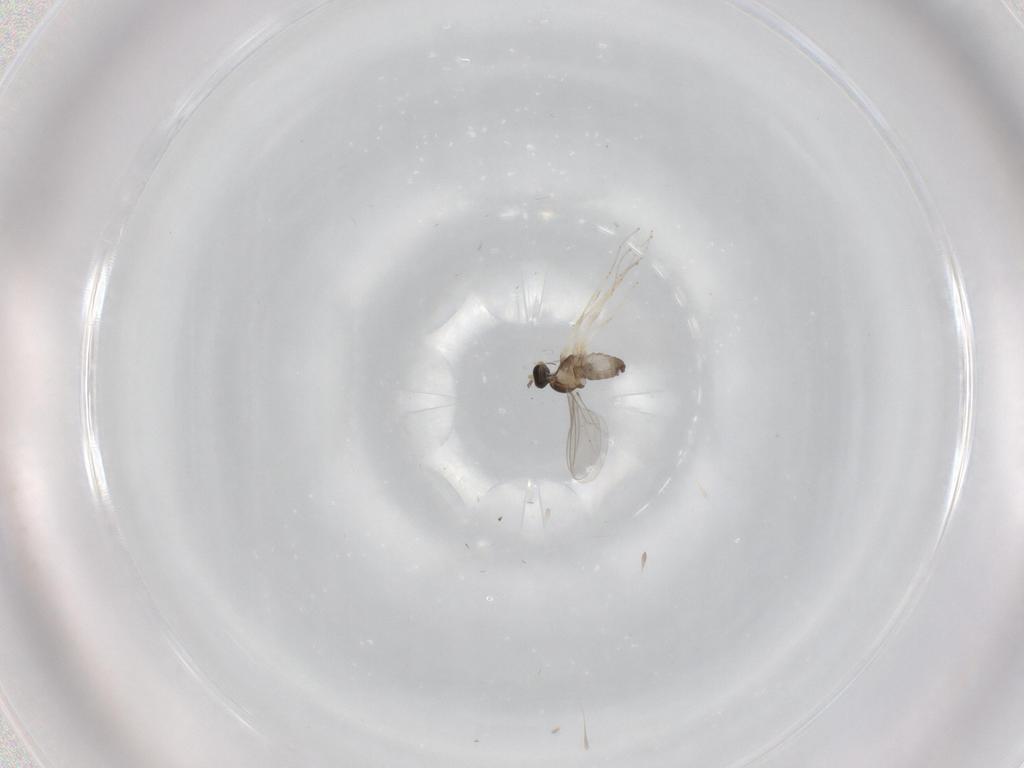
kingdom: Animalia
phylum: Arthropoda
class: Insecta
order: Diptera
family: Cecidomyiidae
